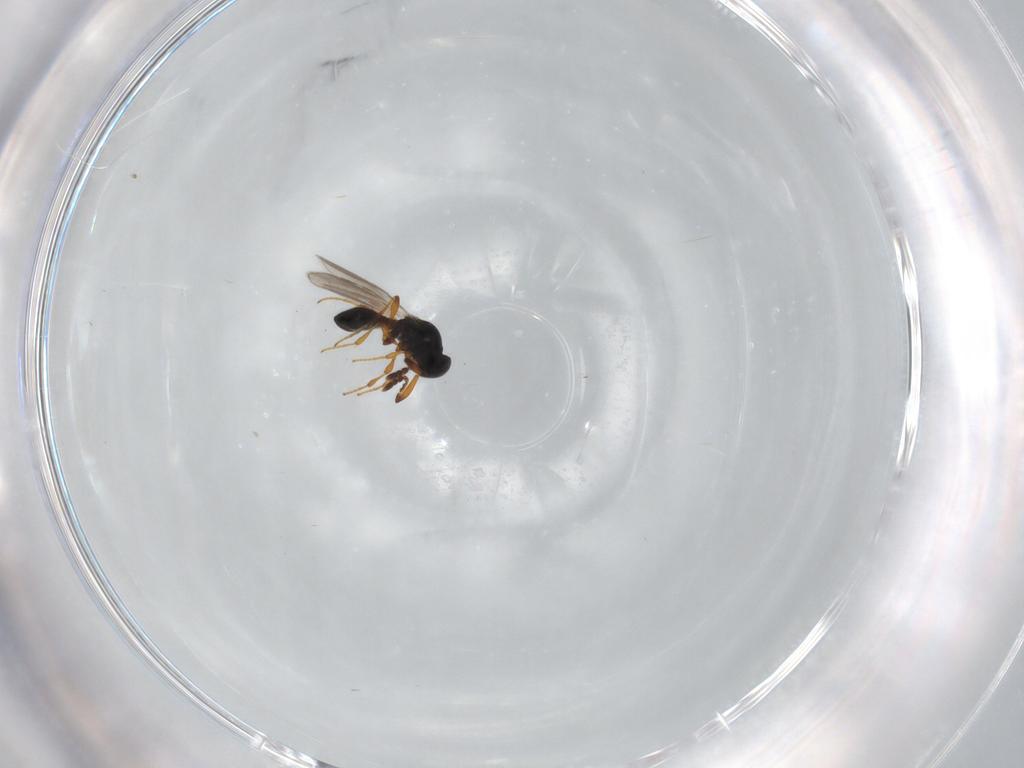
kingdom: Animalia
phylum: Arthropoda
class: Insecta
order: Hymenoptera
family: Platygastridae
